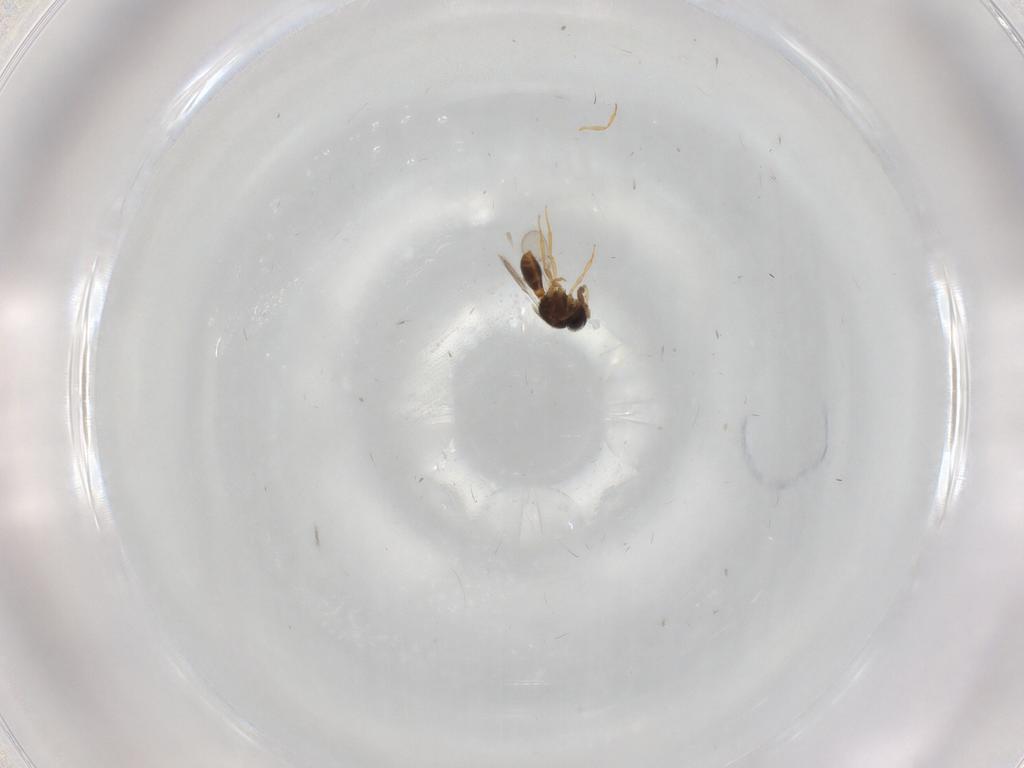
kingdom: Animalia
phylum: Arthropoda
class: Insecta
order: Hymenoptera
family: Scelionidae
